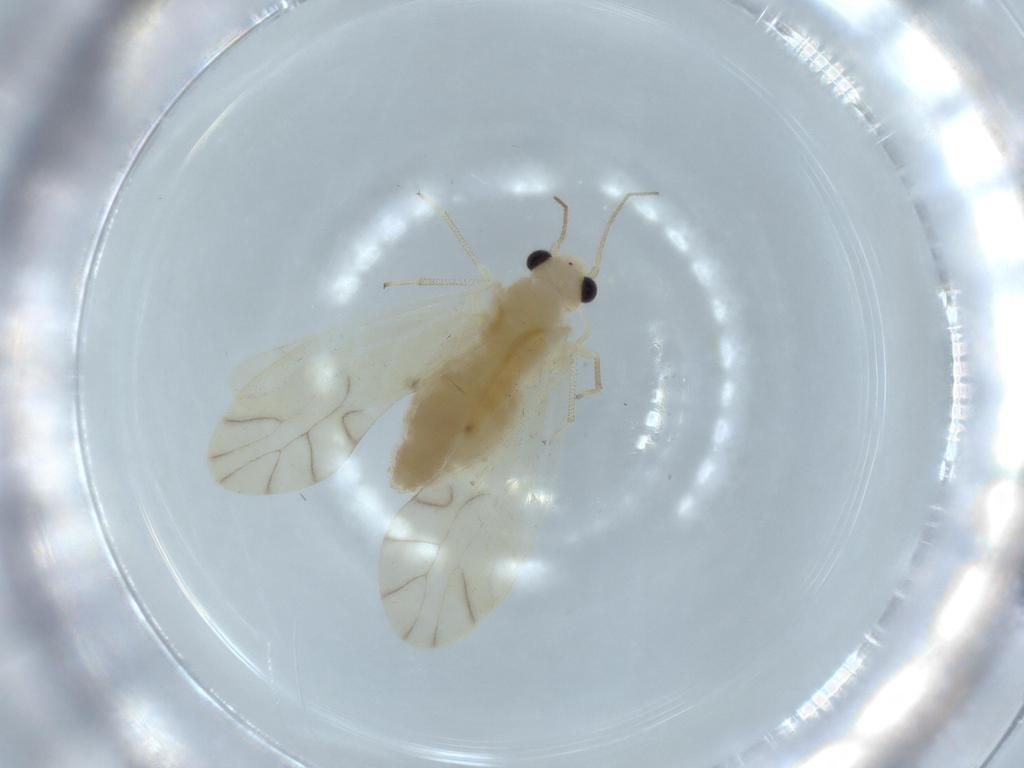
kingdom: Animalia
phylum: Arthropoda
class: Insecta
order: Psocodea
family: Caeciliusidae
